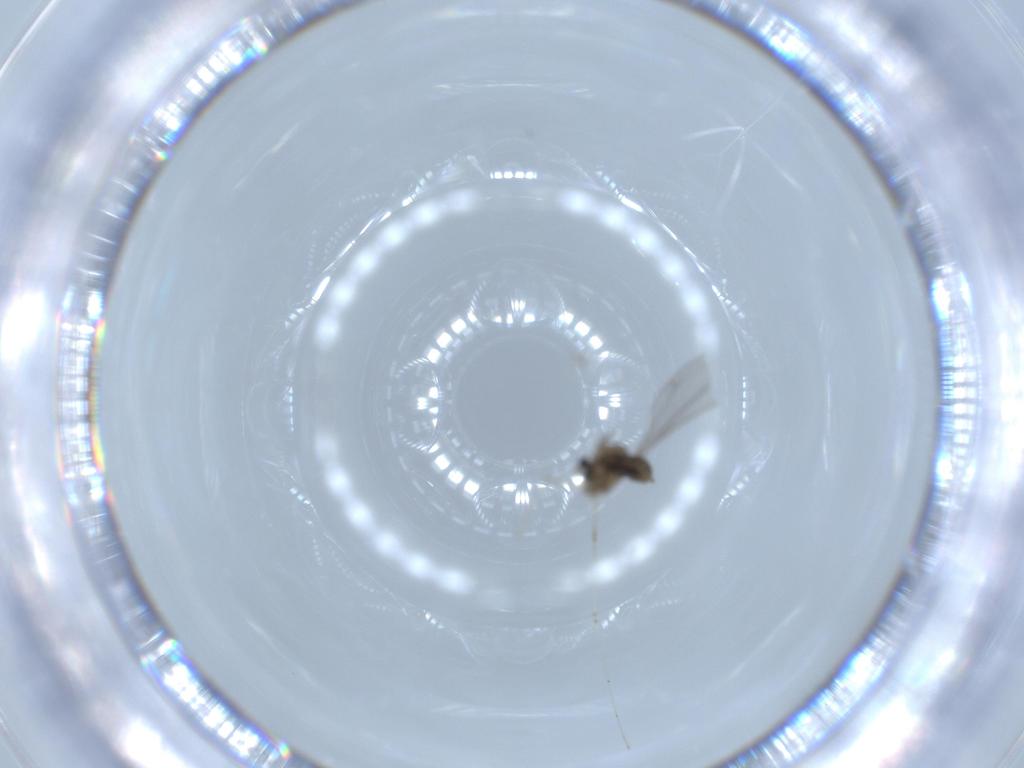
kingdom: Animalia
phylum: Arthropoda
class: Insecta
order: Diptera
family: Cecidomyiidae
